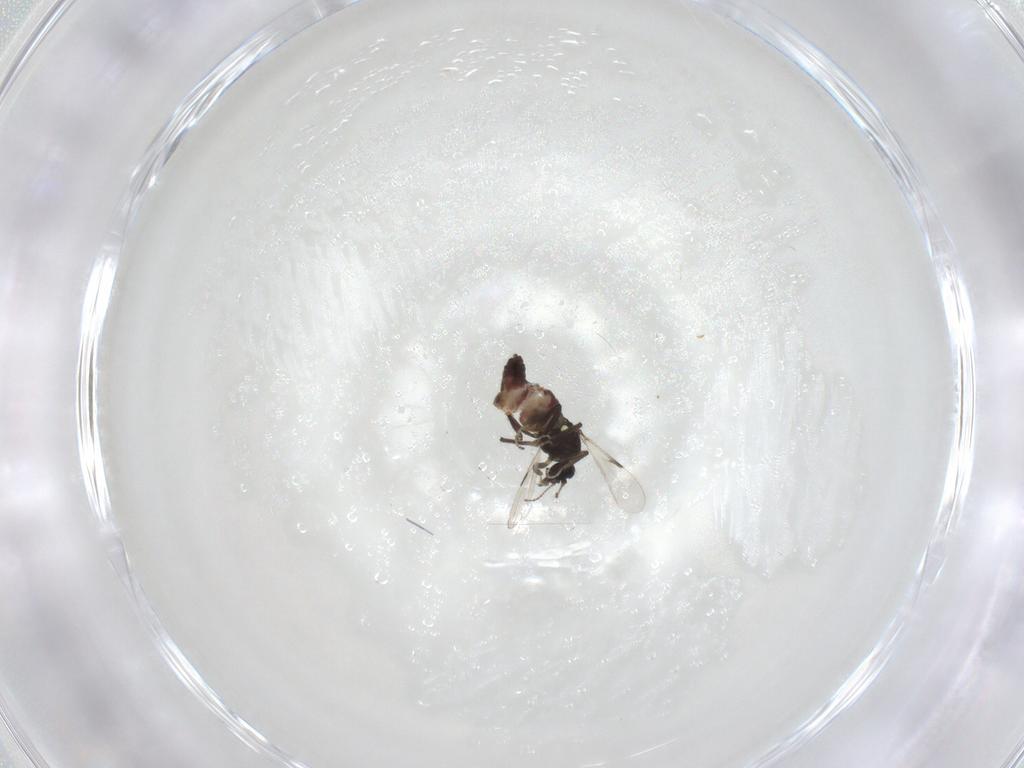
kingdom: Animalia
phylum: Arthropoda
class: Insecta
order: Diptera
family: Ceratopogonidae
